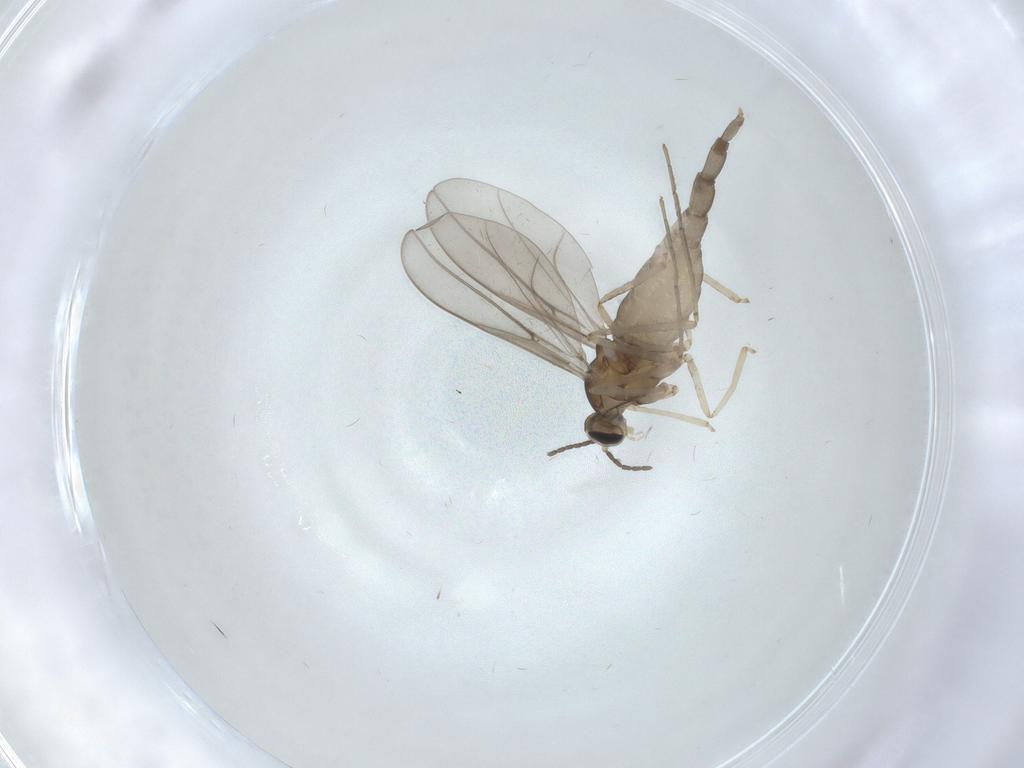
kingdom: Animalia
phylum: Arthropoda
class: Insecta
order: Diptera
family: Cecidomyiidae
